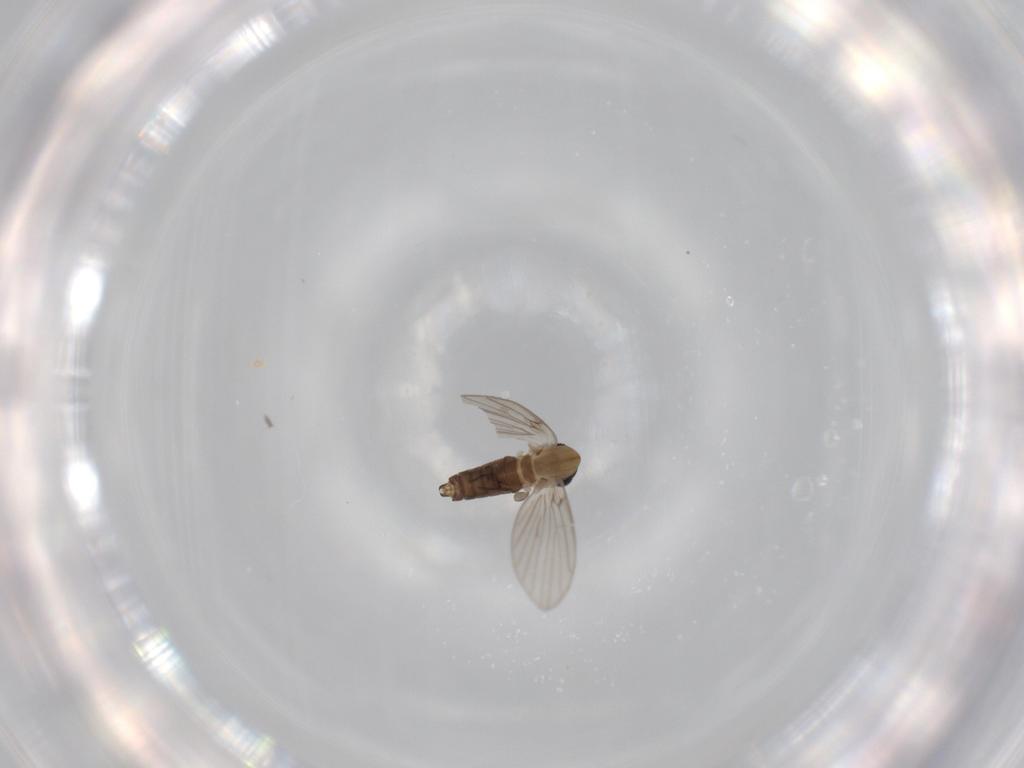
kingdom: Animalia
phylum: Arthropoda
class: Insecta
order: Diptera
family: Psychodidae
